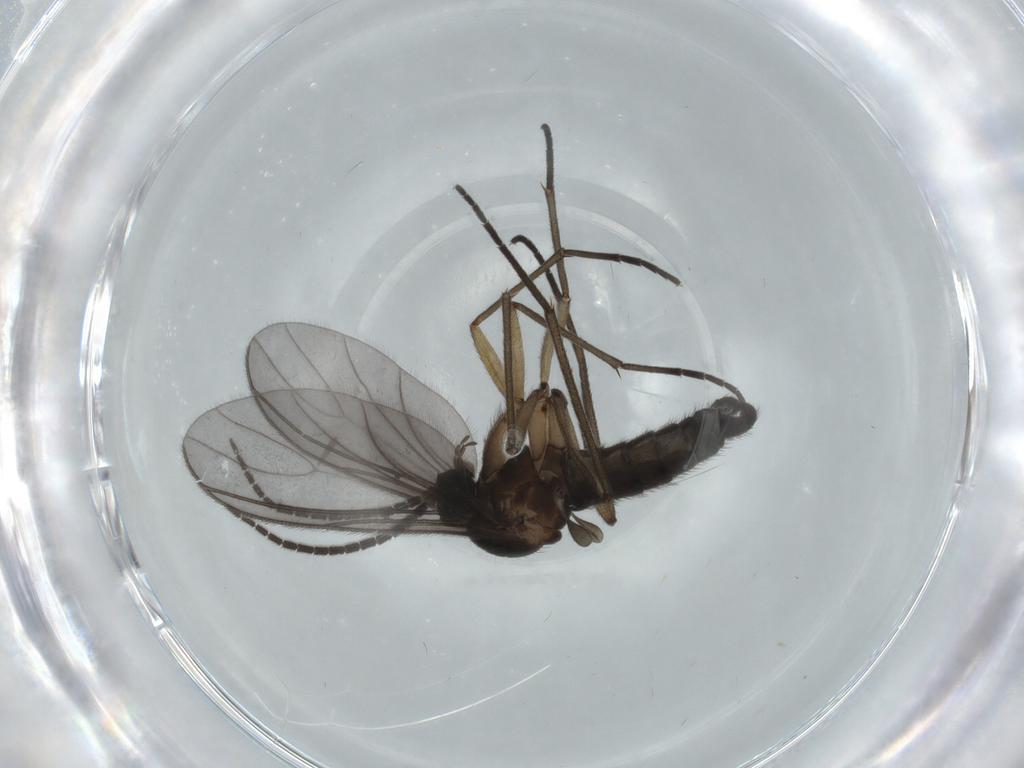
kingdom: Animalia
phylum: Arthropoda
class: Insecta
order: Diptera
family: Sciaridae
